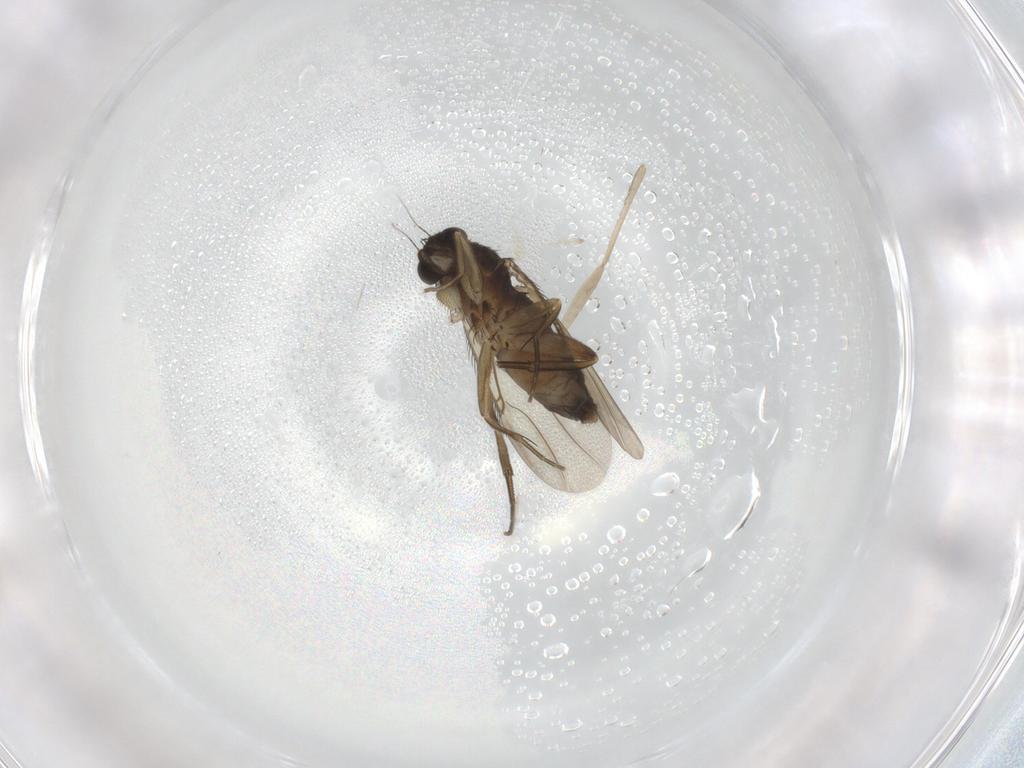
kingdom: Animalia
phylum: Arthropoda
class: Insecta
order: Diptera
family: Phoridae
